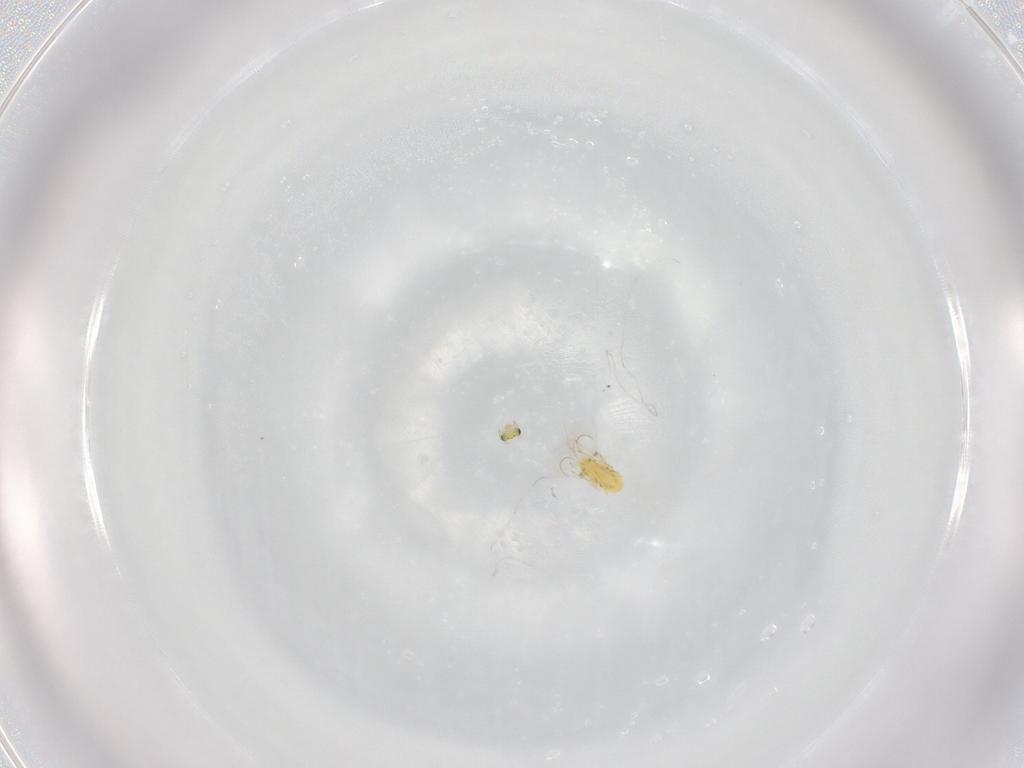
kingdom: Animalia
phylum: Arthropoda
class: Insecta
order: Hymenoptera
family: Trichogrammatidae
